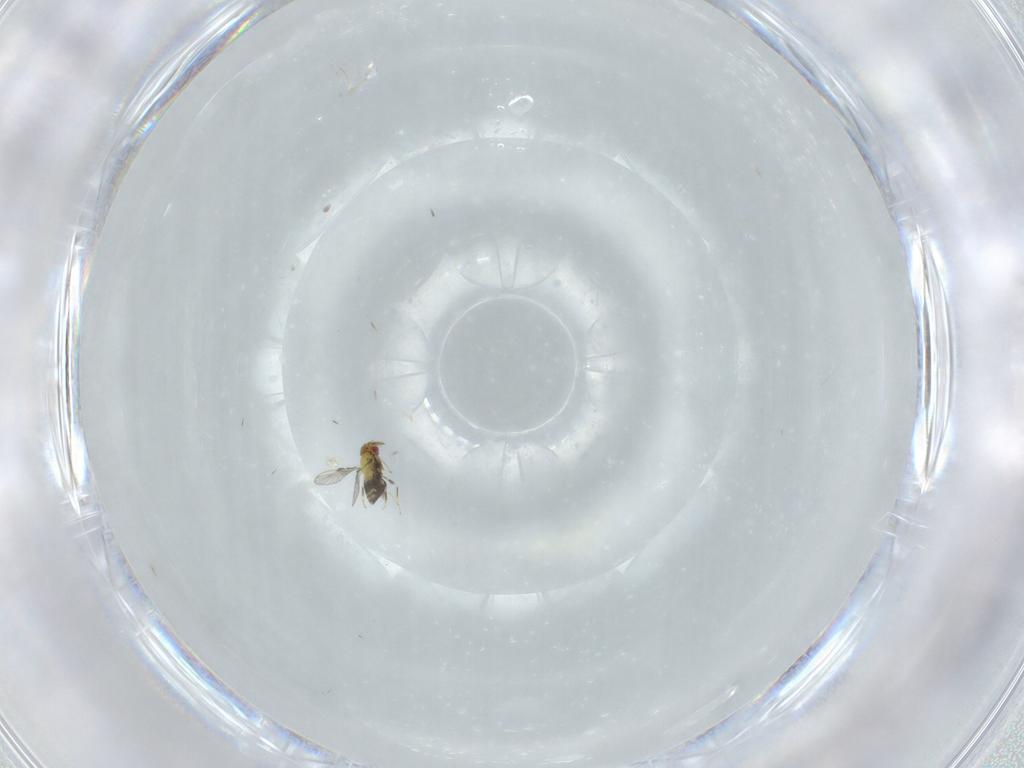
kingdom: Animalia
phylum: Arthropoda
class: Insecta
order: Hymenoptera
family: Trichogrammatidae
